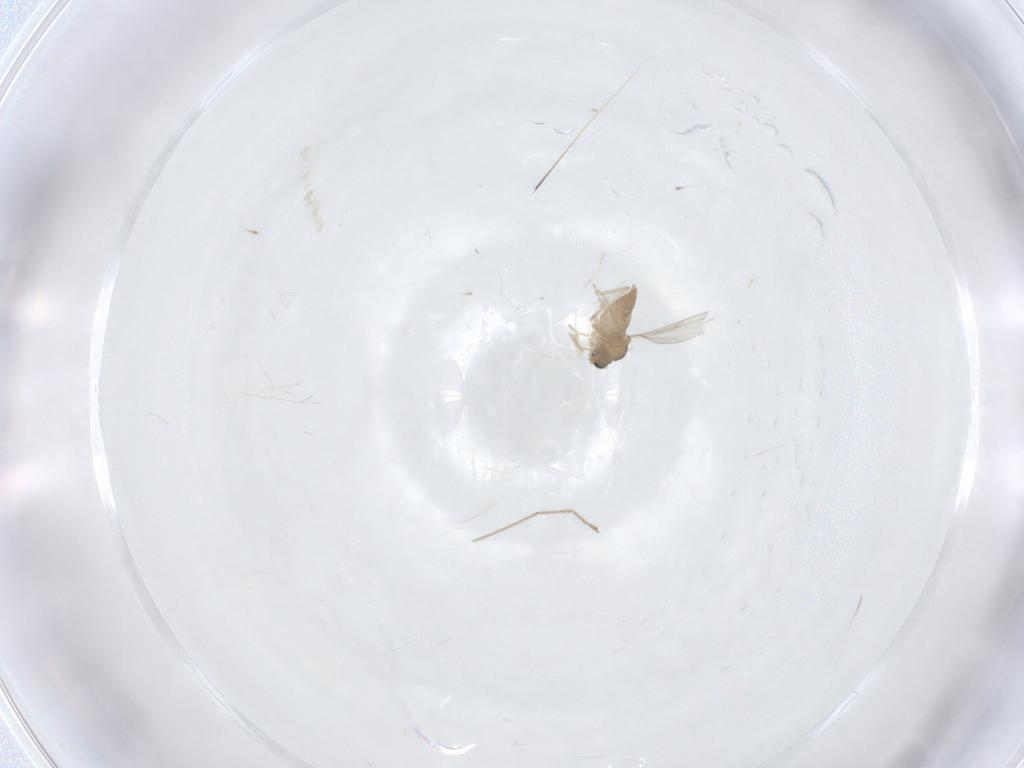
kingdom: Animalia
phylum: Arthropoda
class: Insecta
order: Diptera
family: Cecidomyiidae
